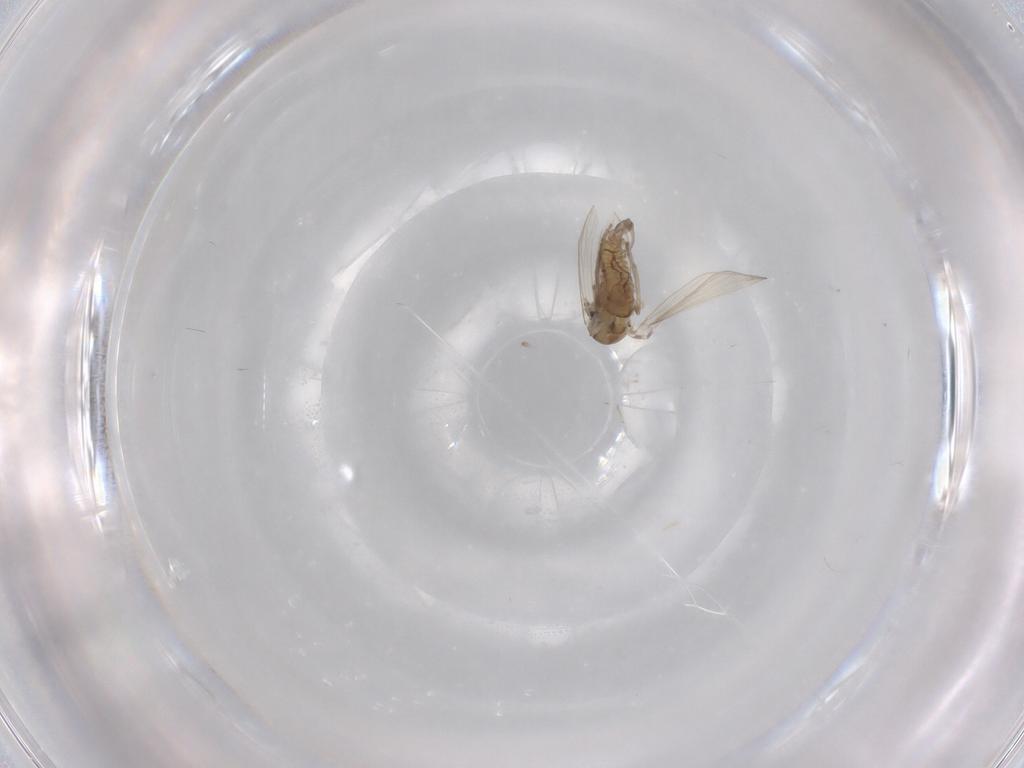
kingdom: Animalia
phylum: Arthropoda
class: Insecta
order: Diptera
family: Psychodidae
